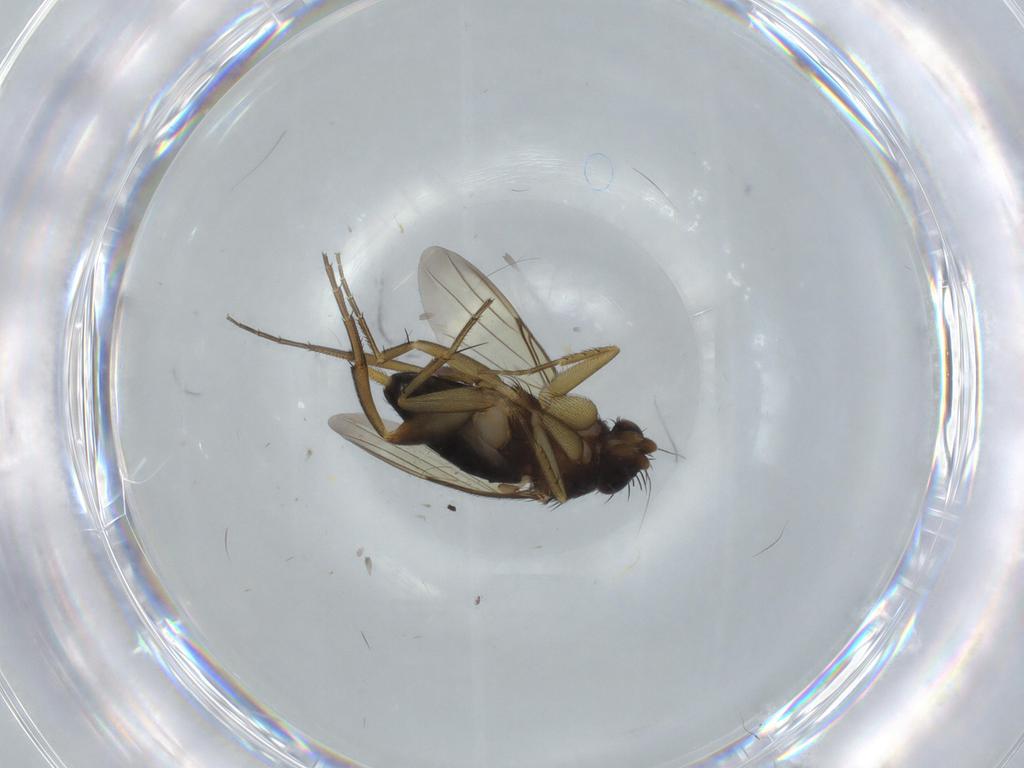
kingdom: Animalia
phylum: Arthropoda
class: Insecta
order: Diptera
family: Phoridae
